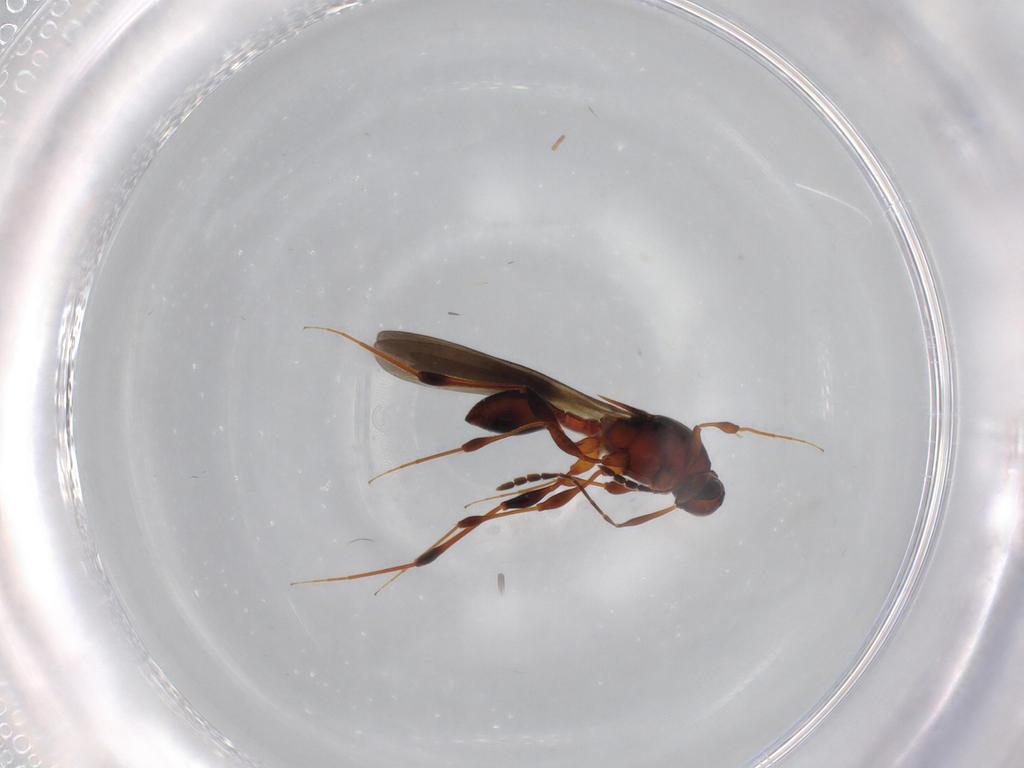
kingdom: Animalia
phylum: Arthropoda
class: Insecta
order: Hymenoptera
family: Platygastridae
